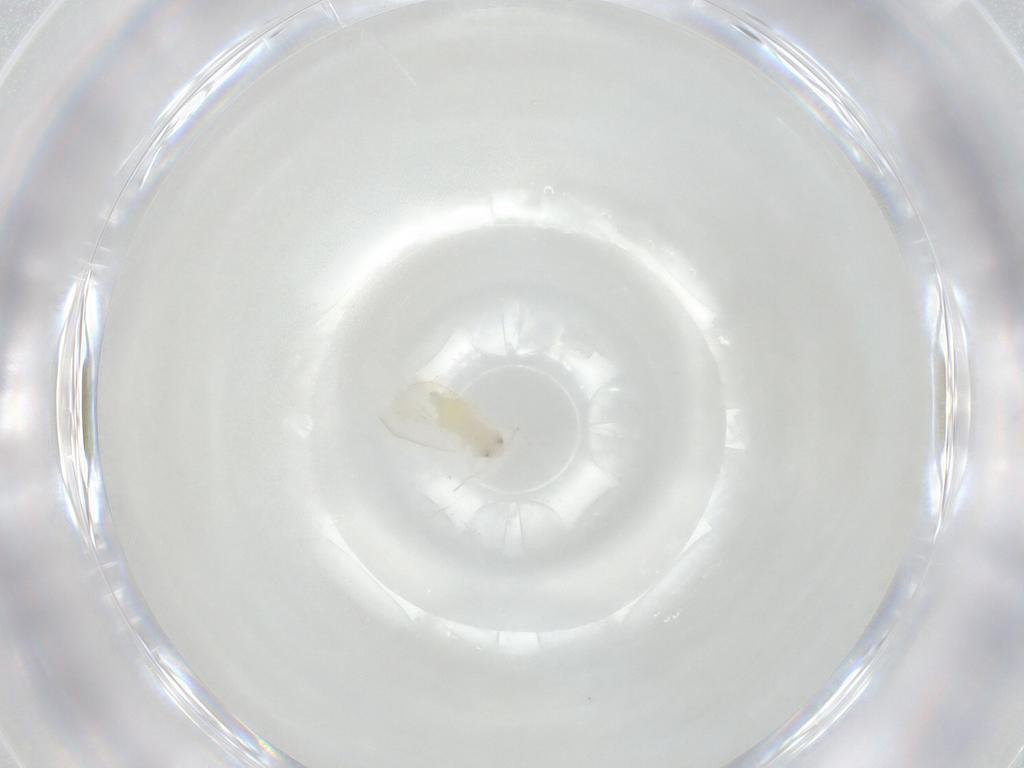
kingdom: Animalia
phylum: Arthropoda
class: Insecta
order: Hemiptera
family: Aleyrodidae
